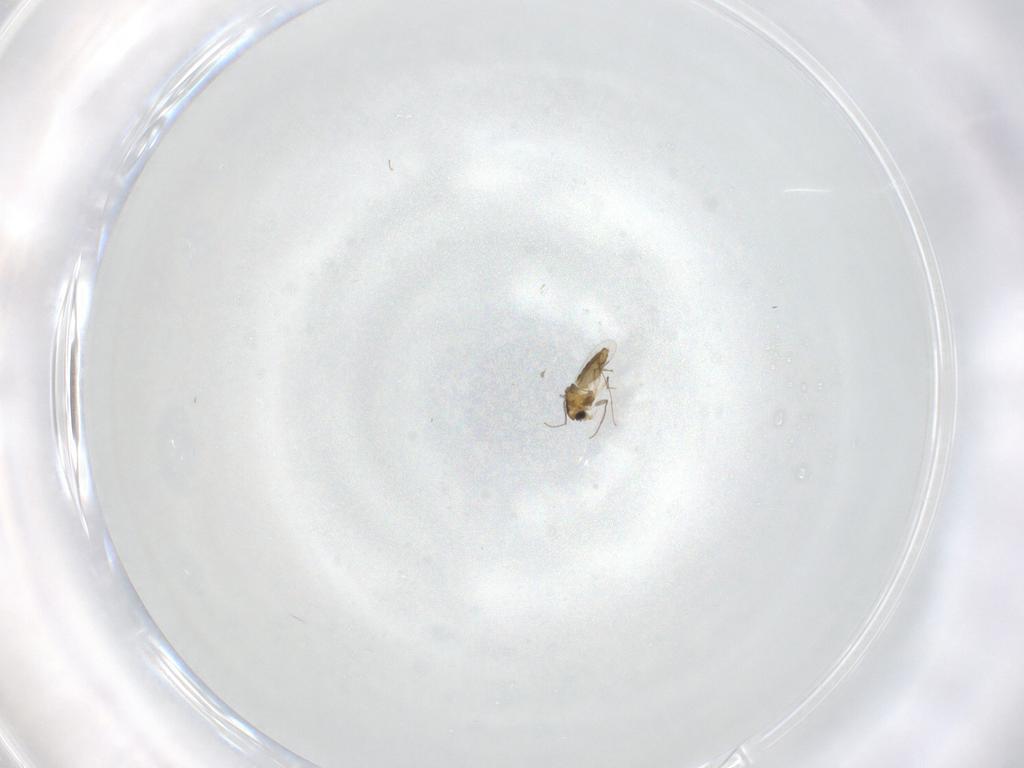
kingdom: Animalia
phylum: Arthropoda
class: Insecta
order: Diptera
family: Chironomidae
